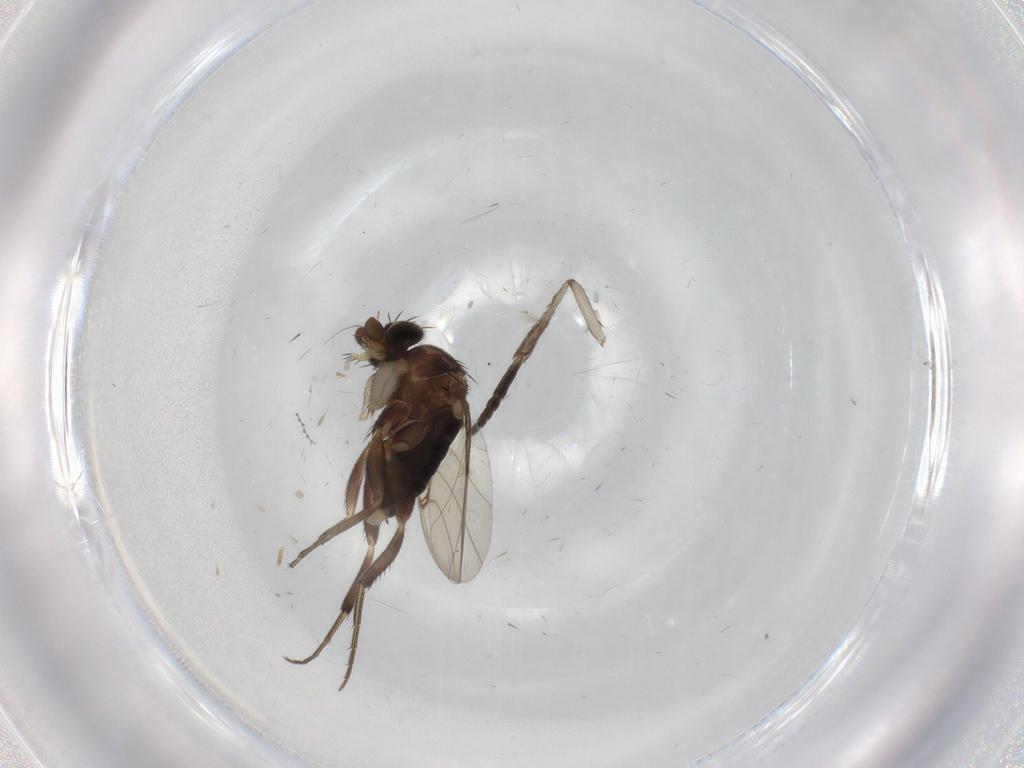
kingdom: Animalia
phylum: Arthropoda
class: Insecta
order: Diptera
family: Phoridae
